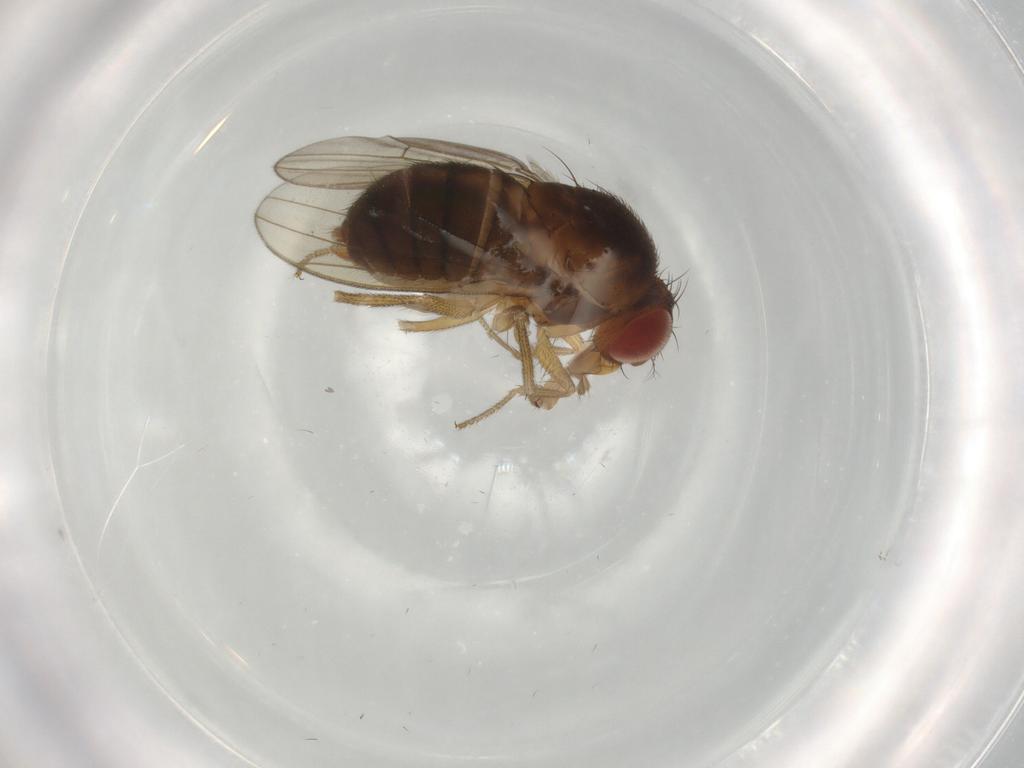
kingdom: Animalia
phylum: Arthropoda
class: Insecta
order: Diptera
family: Drosophilidae
